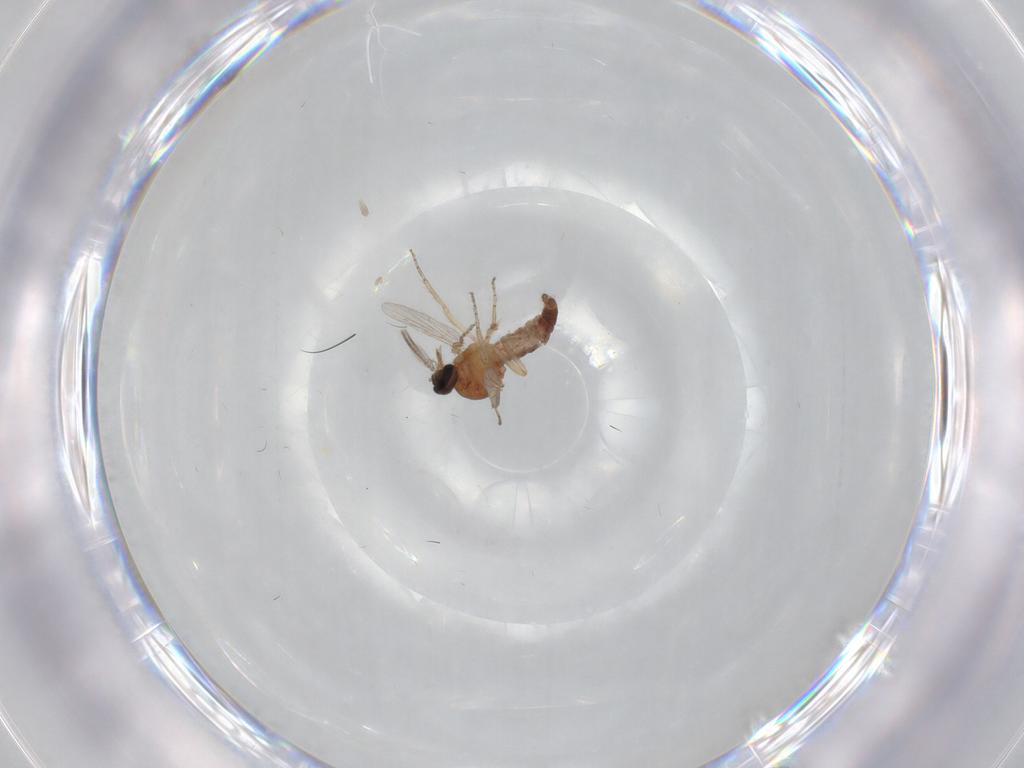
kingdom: Animalia
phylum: Arthropoda
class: Insecta
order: Diptera
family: Ceratopogonidae
